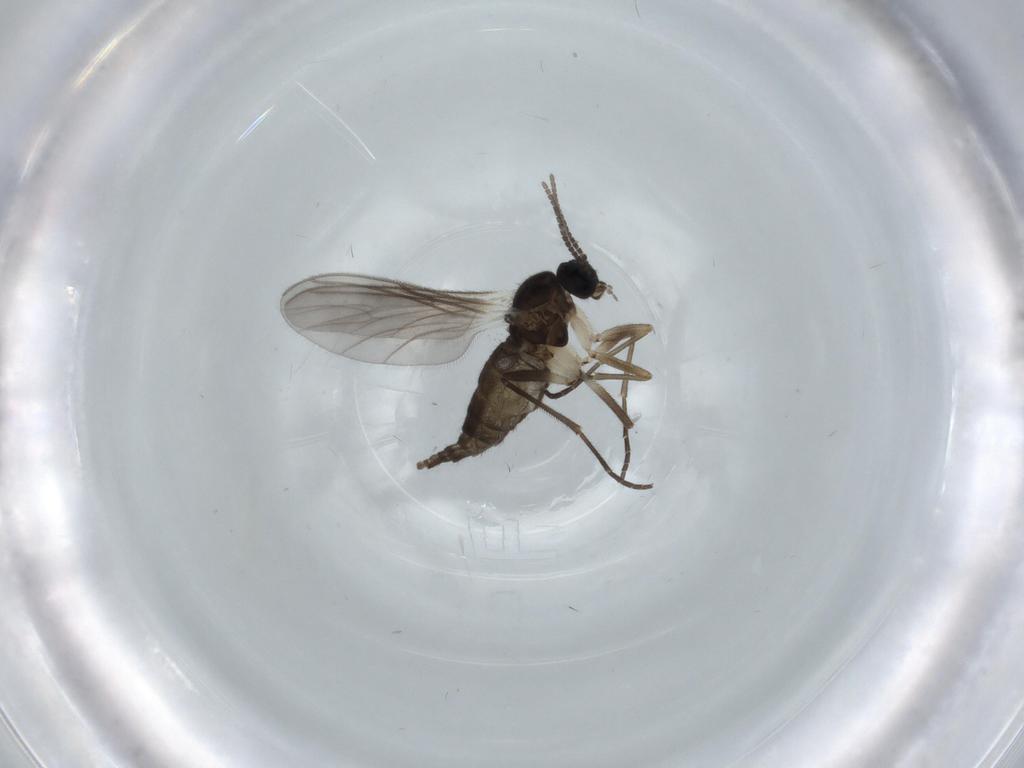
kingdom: Animalia
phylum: Arthropoda
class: Insecta
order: Diptera
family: Sciaridae
